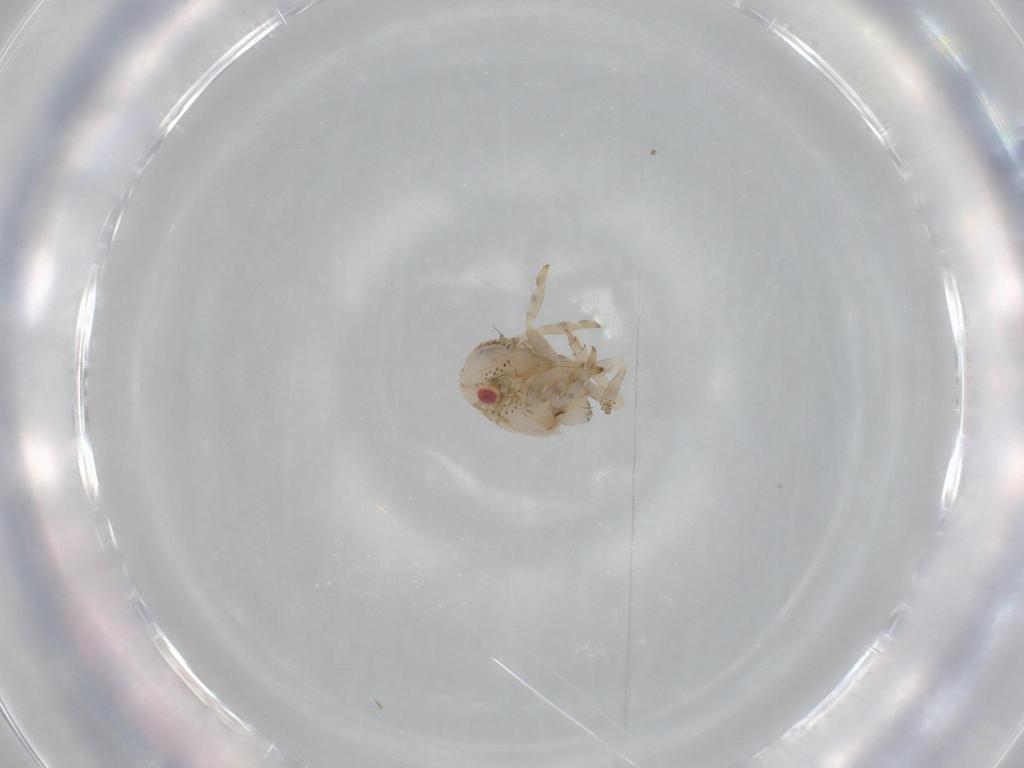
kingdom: Animalia
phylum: Arthropoda
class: Insecta
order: Hemiptera
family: Acanaloniidae
